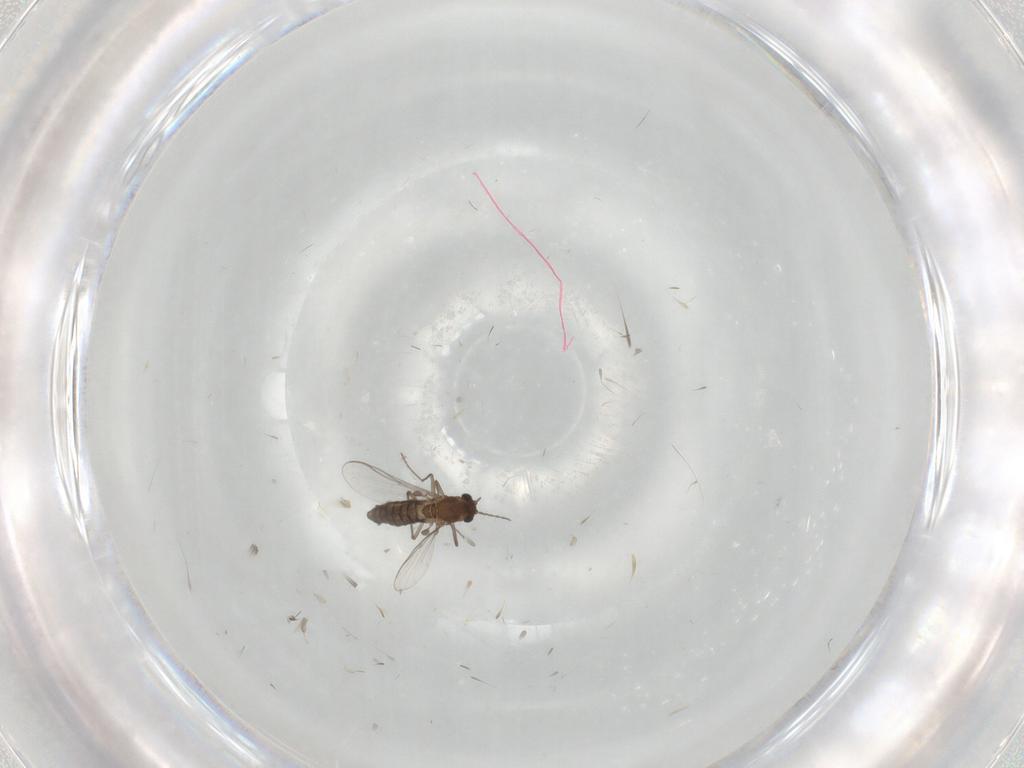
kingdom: Animalia
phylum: Arthropoda
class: Insecta
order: Diptera
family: Chironomidae
